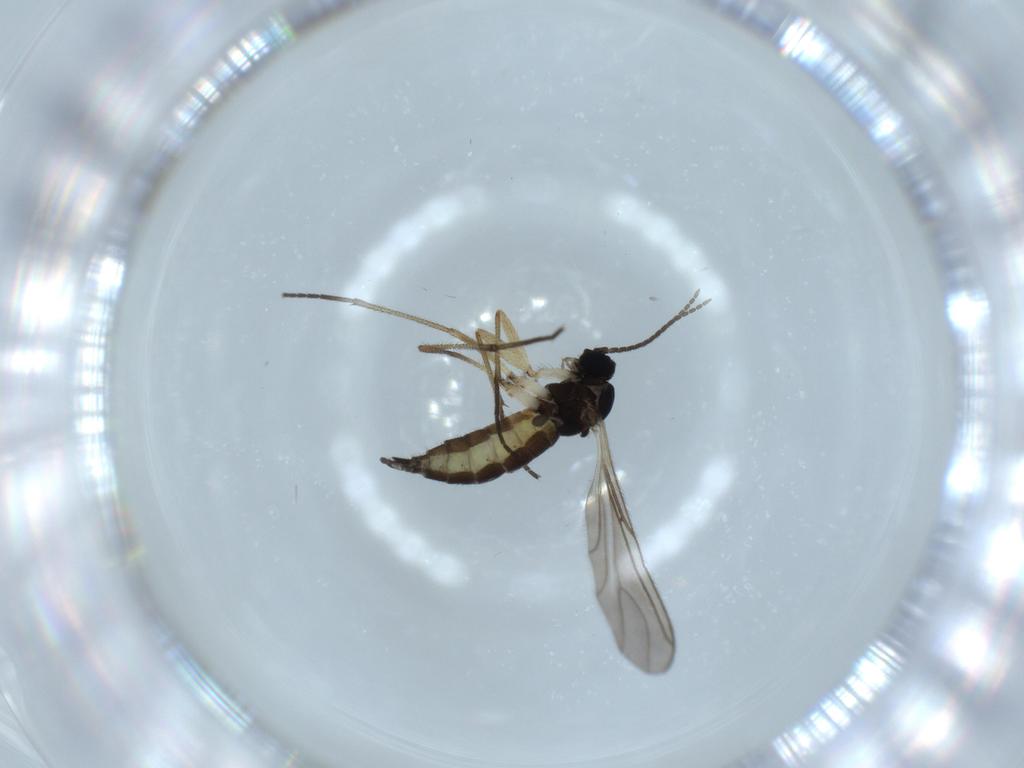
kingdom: Animalia
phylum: Arthropoda
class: Insecta
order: Diptera
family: Sciaridae
